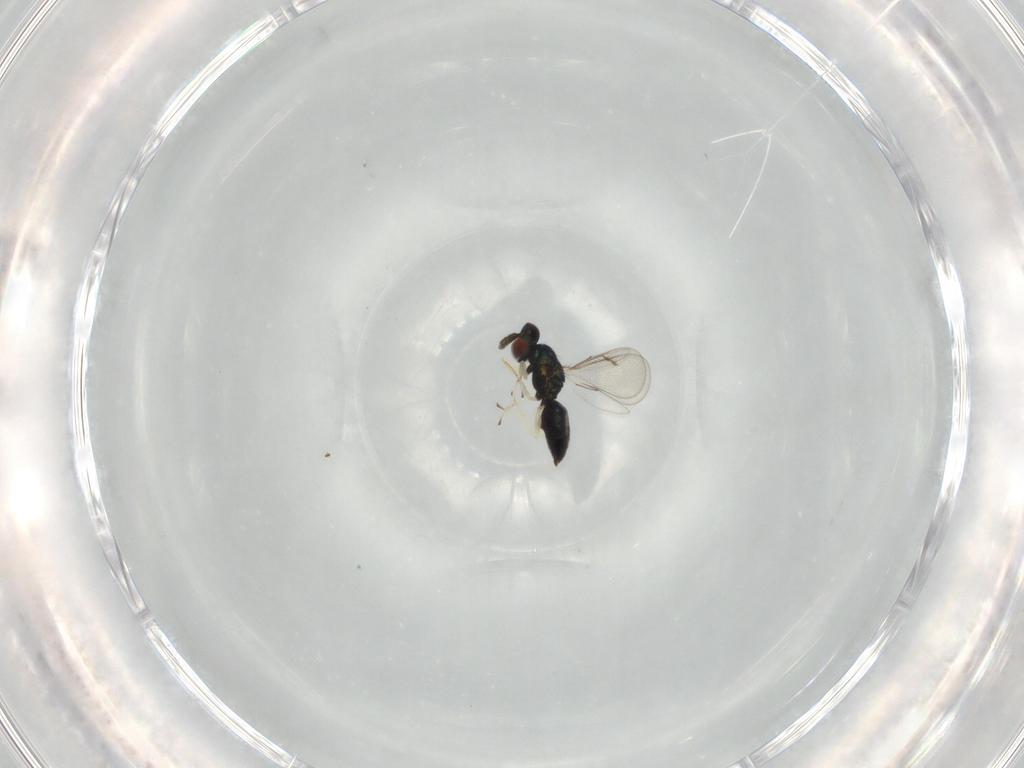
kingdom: Animalia
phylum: Arthropoda
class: Insecta
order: Hymenoptera
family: Eulophidae
